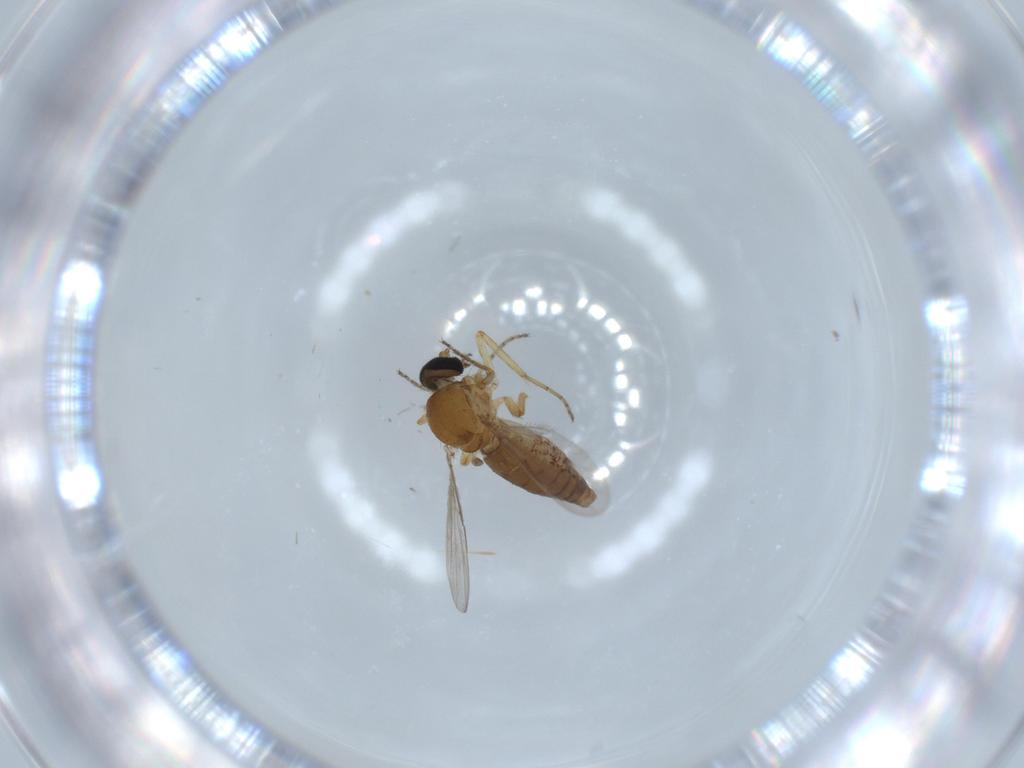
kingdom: Animalia
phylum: Arthropoda
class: Insecta
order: Diptera
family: Ceratopogonidae
